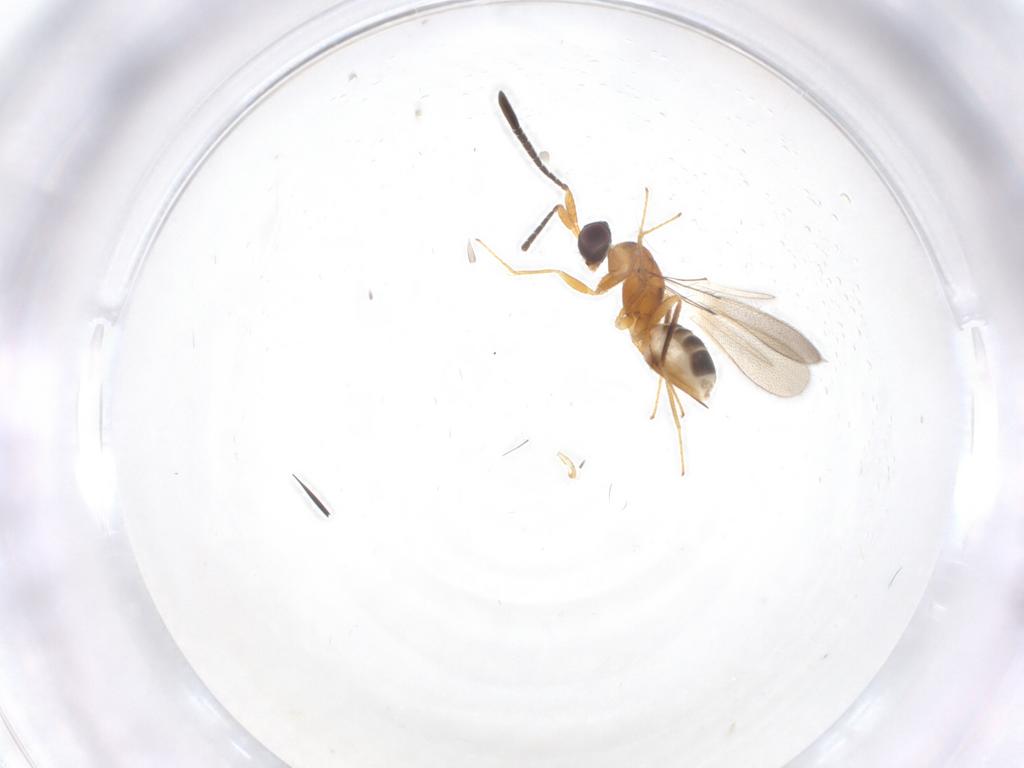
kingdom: Animalia
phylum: Arthropoda
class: Insecta
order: Hymenoptera
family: Mymaridae
